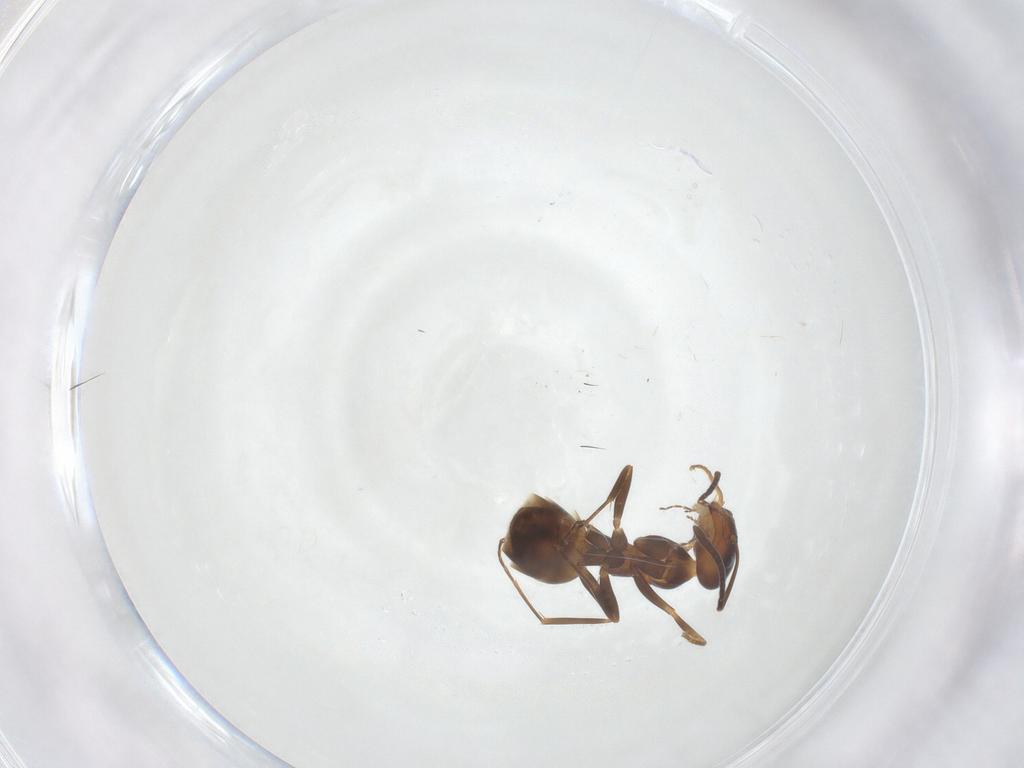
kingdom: Animalia
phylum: Arthropoda
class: Insecta
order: Hymenoptera
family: Formicidae
